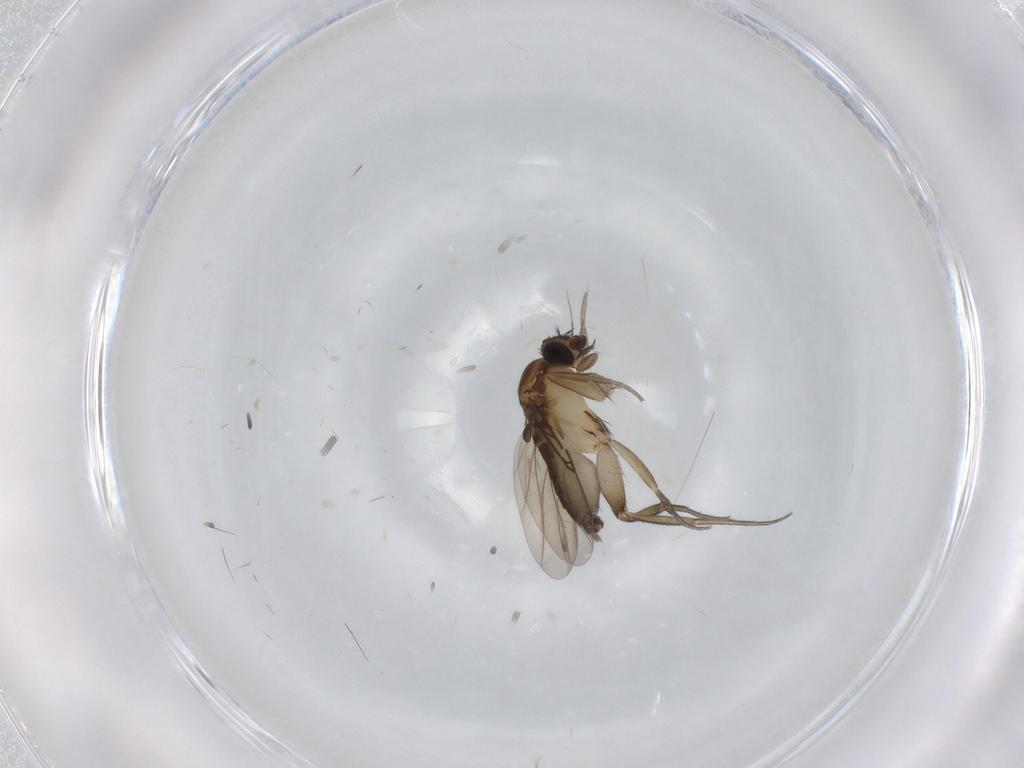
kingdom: Animalia
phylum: Arthropoda
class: Insecta
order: Diptera
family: Phoridae
